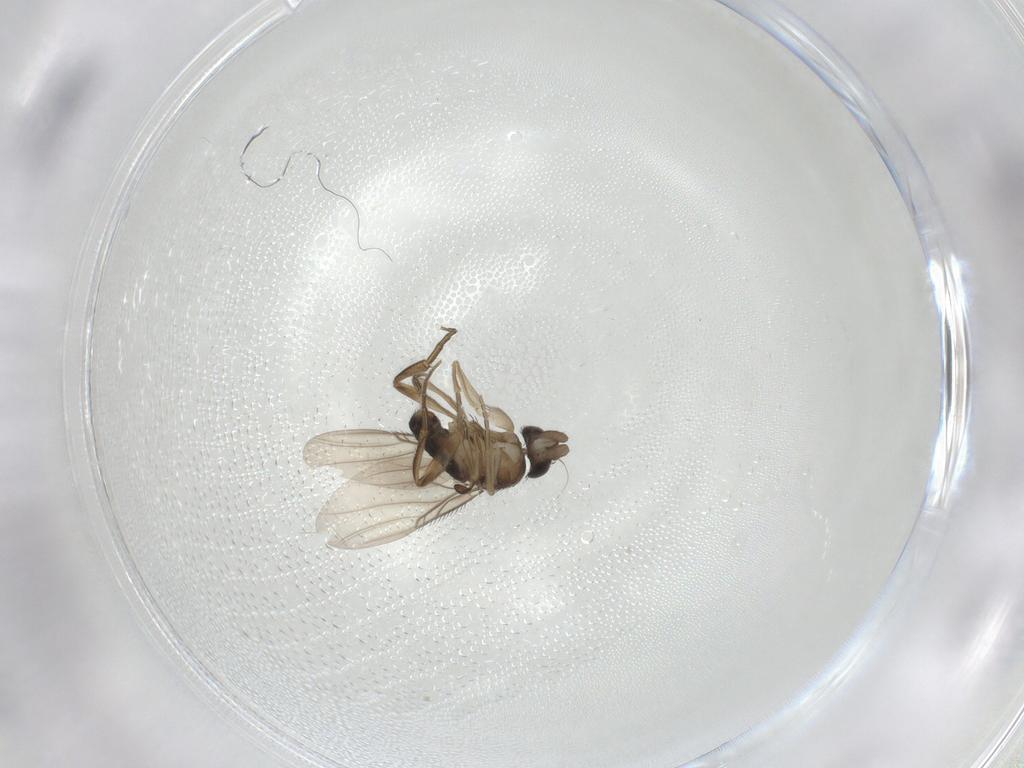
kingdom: Animalia
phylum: Arthropoda
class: Insecta
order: Diptera
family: Phoridae
